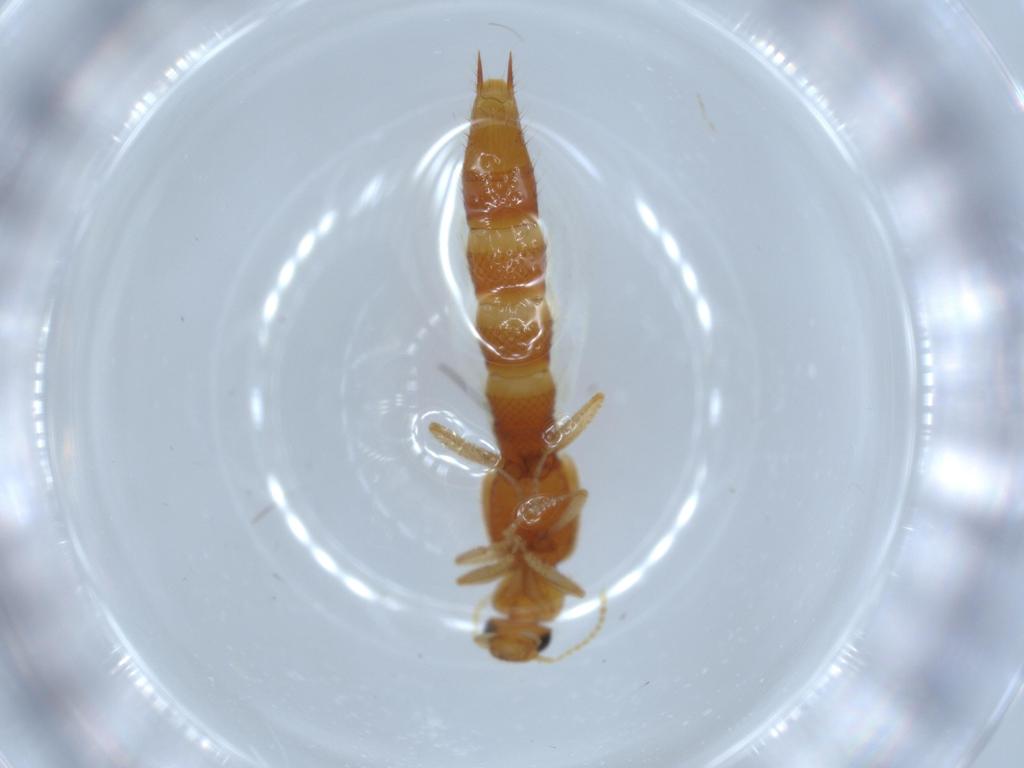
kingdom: Animalia
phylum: Arthropoda
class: Insecta
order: Coleoptera
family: Staphylinidae
